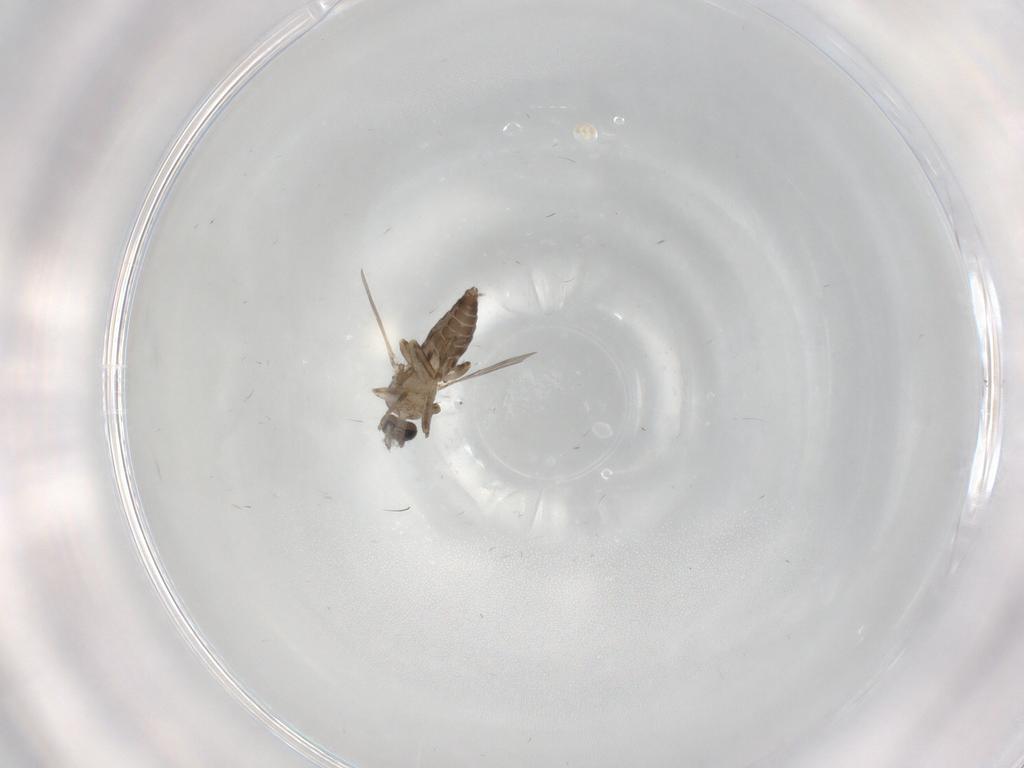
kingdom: Animalia
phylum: Arthropoda
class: Insecta
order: Diptera
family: Ceratopogonidae
